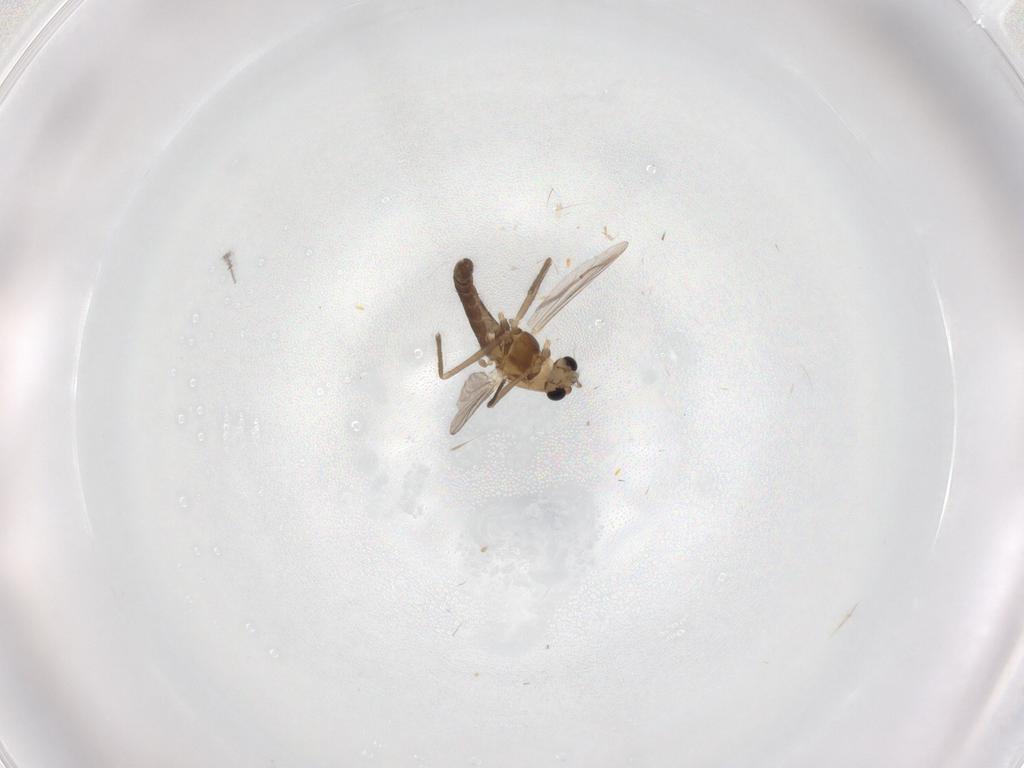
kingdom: Animalia
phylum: Arthropoda
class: Insecta
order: Diptera
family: Chironomidae
